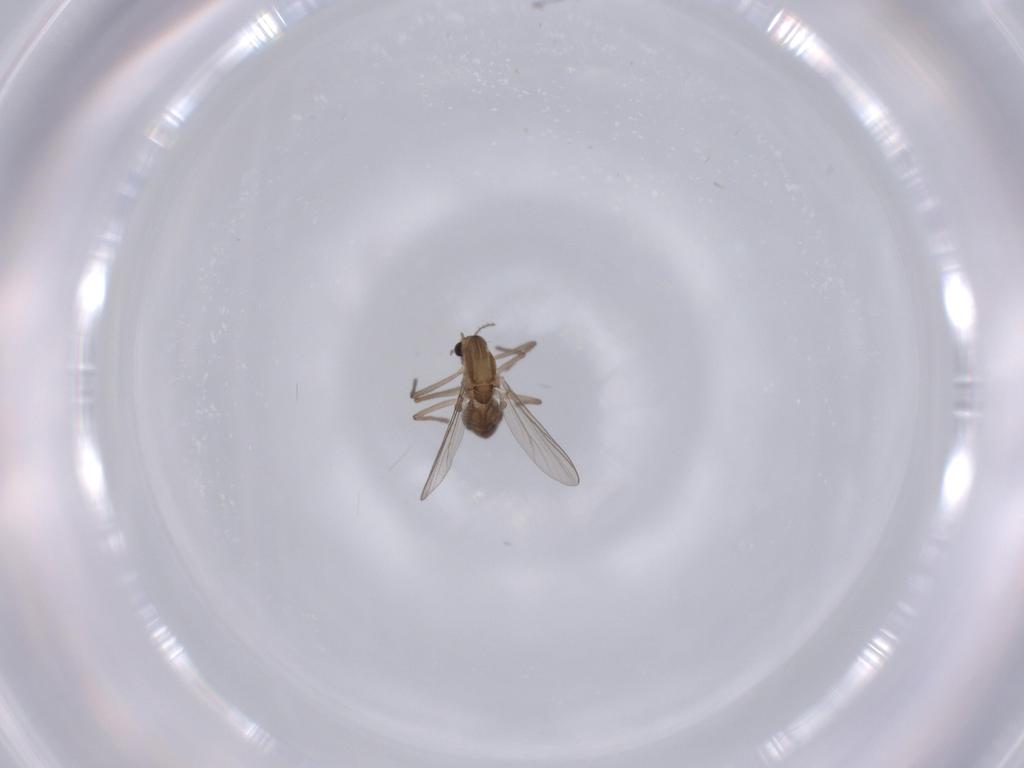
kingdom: Animalia
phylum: Arthropoda
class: Insecta
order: Diptera
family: Chironomidae
